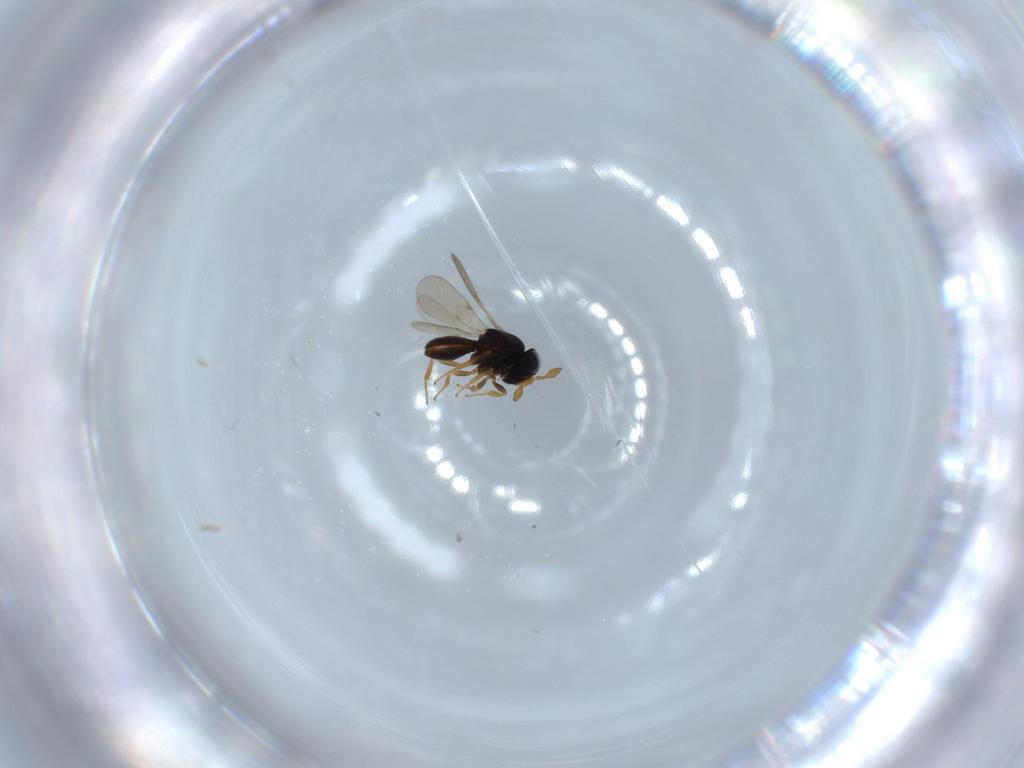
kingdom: Animalia
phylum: Arthropoda
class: Insecta
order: Hymenoptera
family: Scelionidae
